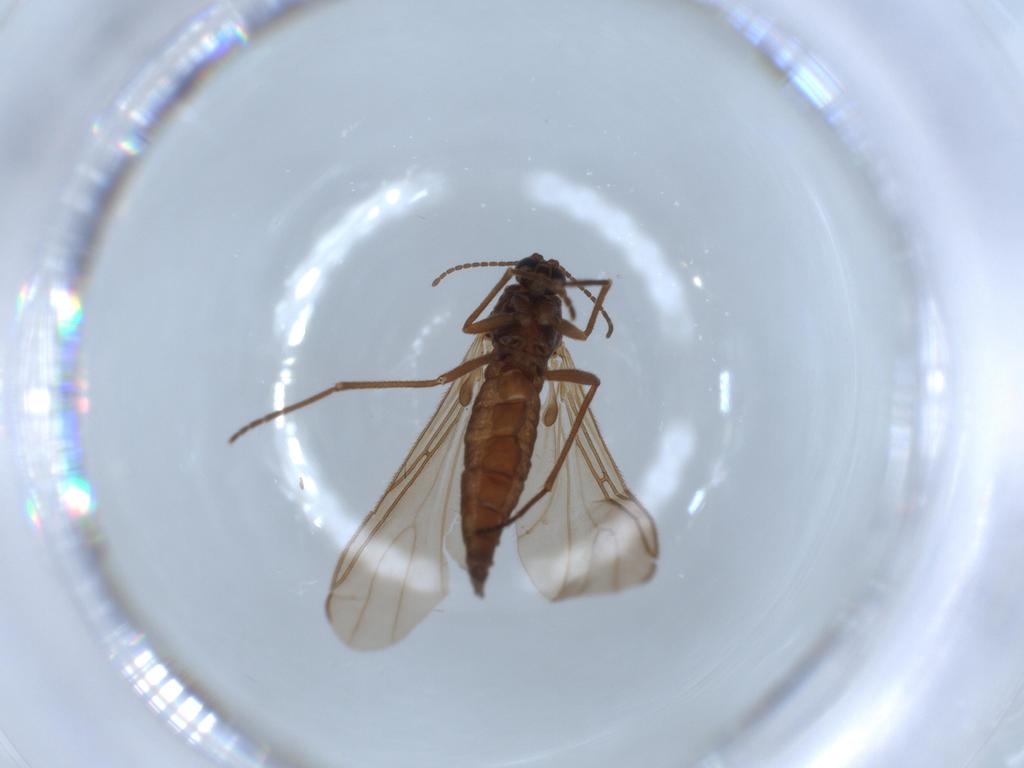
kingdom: Animalia
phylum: Arthropoda
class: Insecta
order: Diptera
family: Sciaridae
